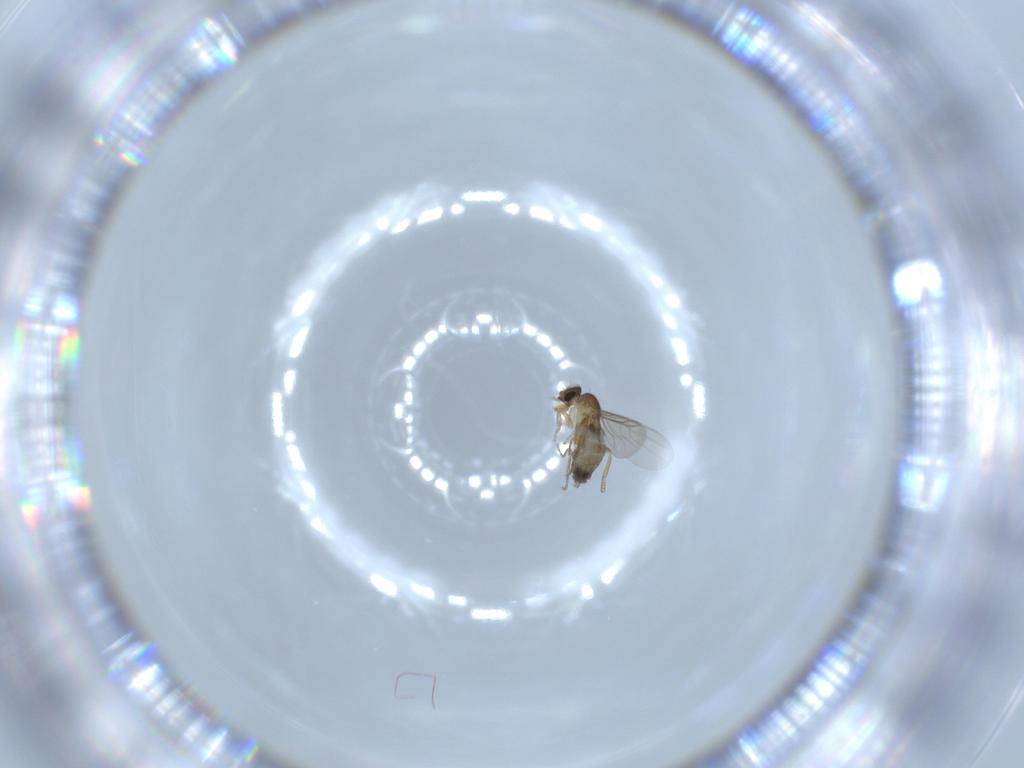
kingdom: Animalia
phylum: Arthropoda
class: Insecta
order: Diptera
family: Phoridae
